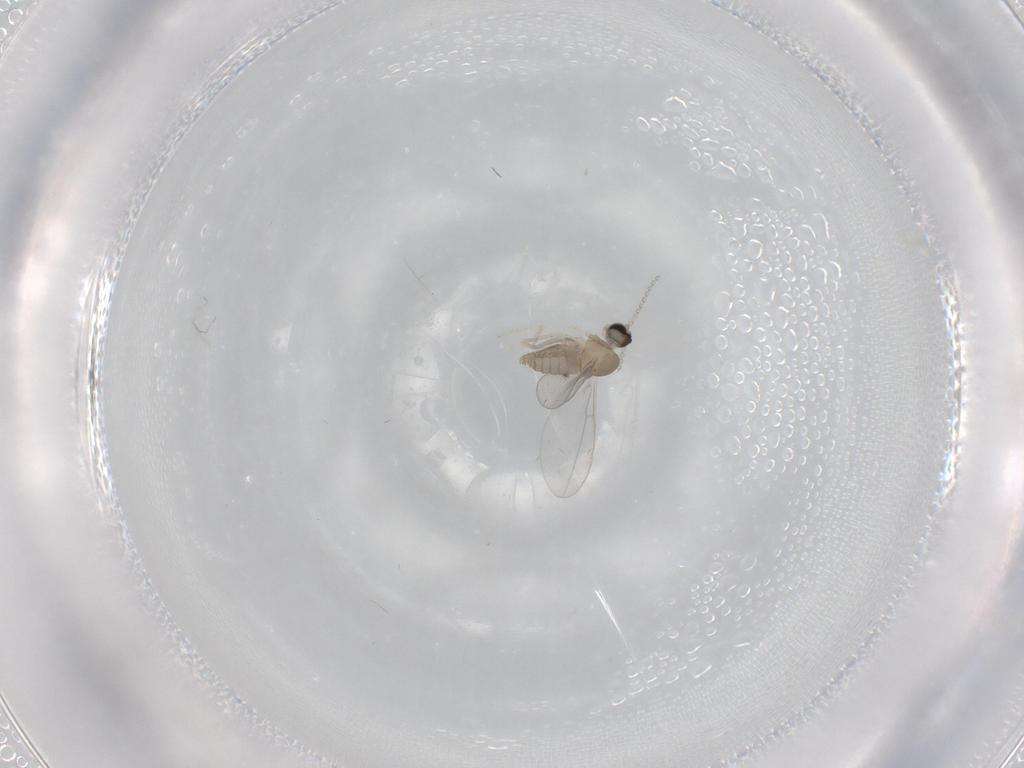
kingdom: Animalia
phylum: Arthropoda
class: Insecta
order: Diptera
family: Cecidomyiidae
